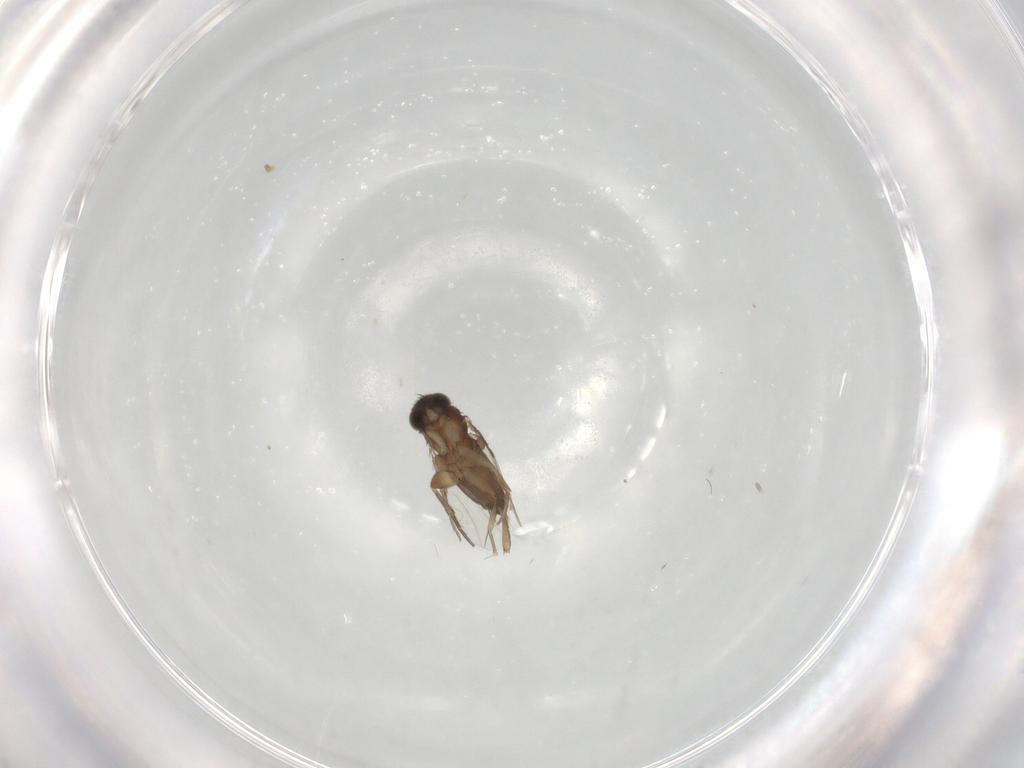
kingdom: Animalia
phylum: Arthropoda
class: Insecta
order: Diptera
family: Phoridae
